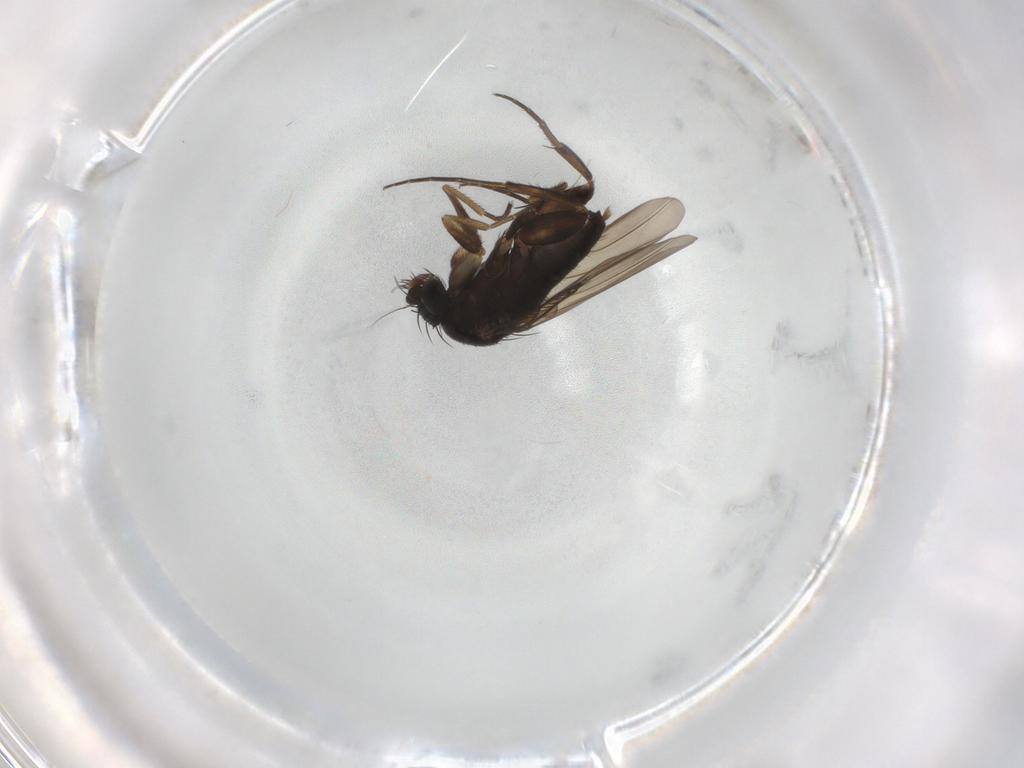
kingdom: Animalia
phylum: Arthropoda
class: Insecta
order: Diptera
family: Phoridae
